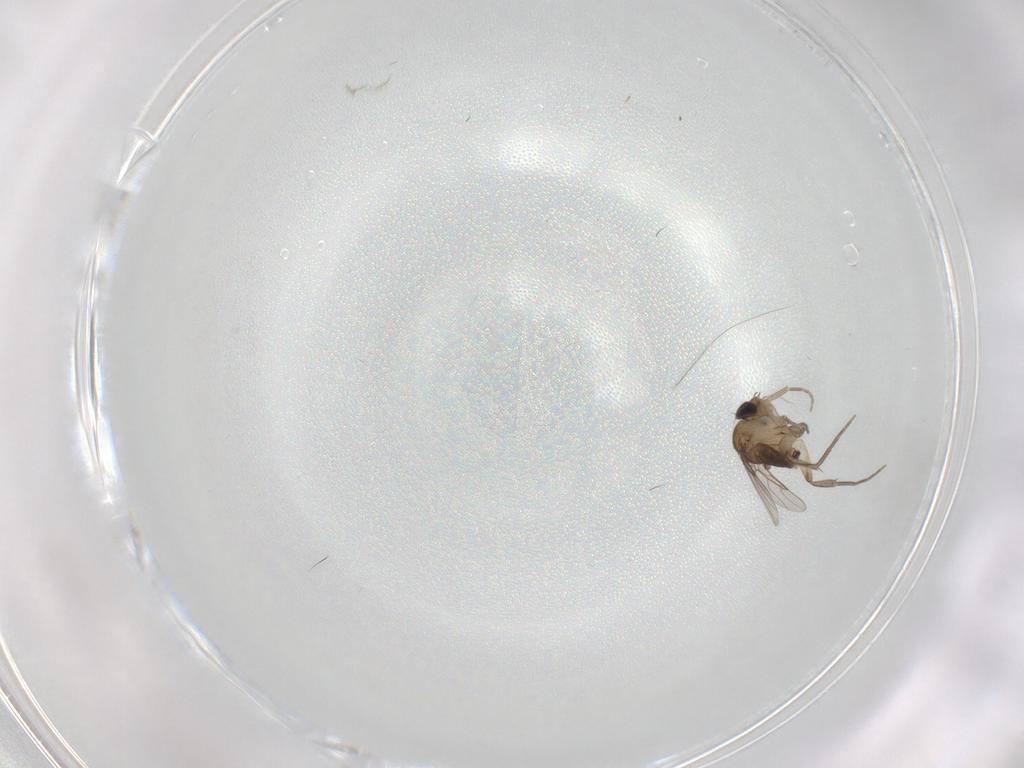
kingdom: Animalia
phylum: Arthropoda
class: Insecta
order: Diptera
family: Phoridae
